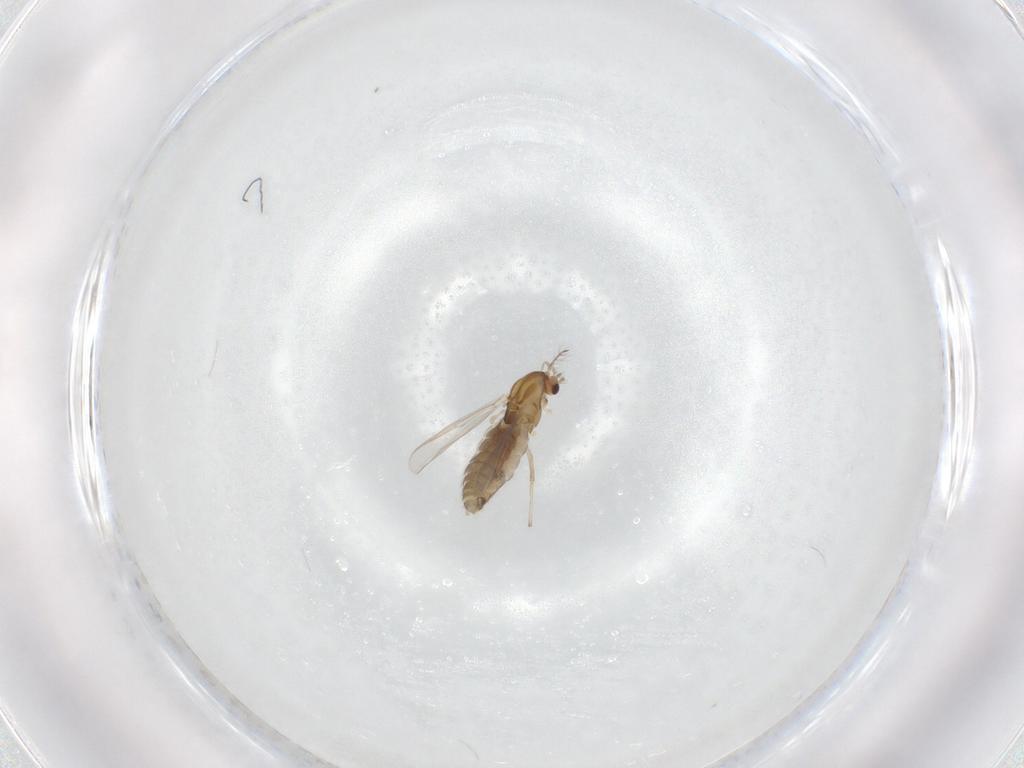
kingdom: Animalia
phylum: Arthropoda
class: Insecta
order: Diptera
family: Chironomidae
